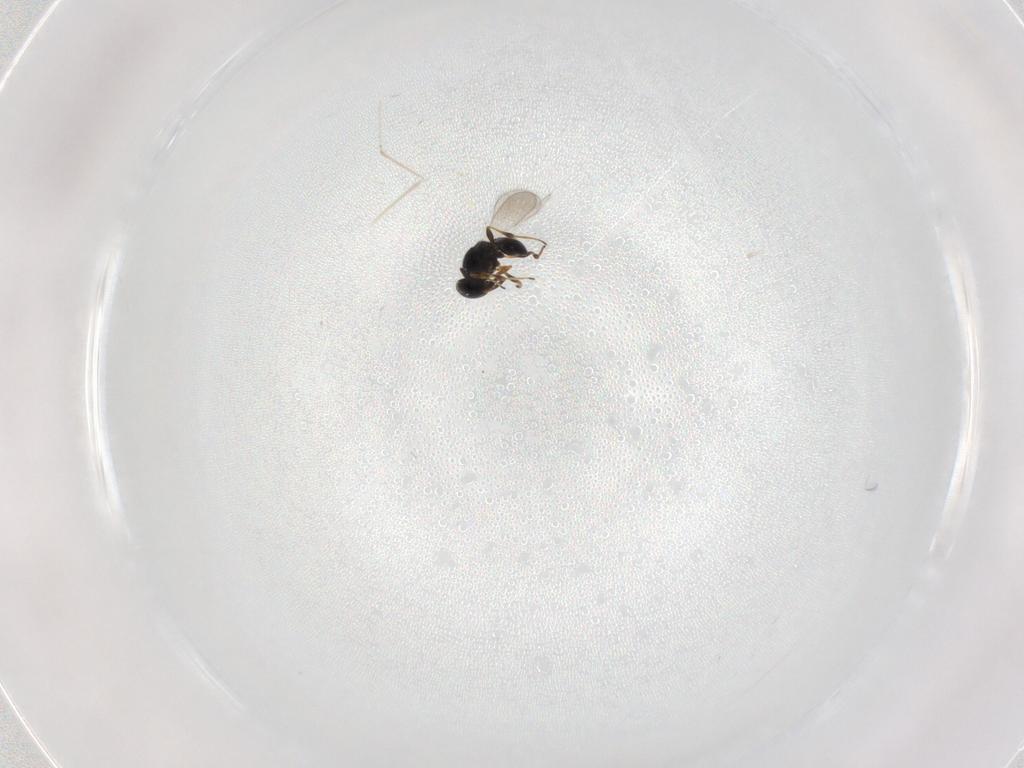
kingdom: Animalia
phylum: Arthropoda
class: Insecta
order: Hymenoptera
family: Platygastridae
